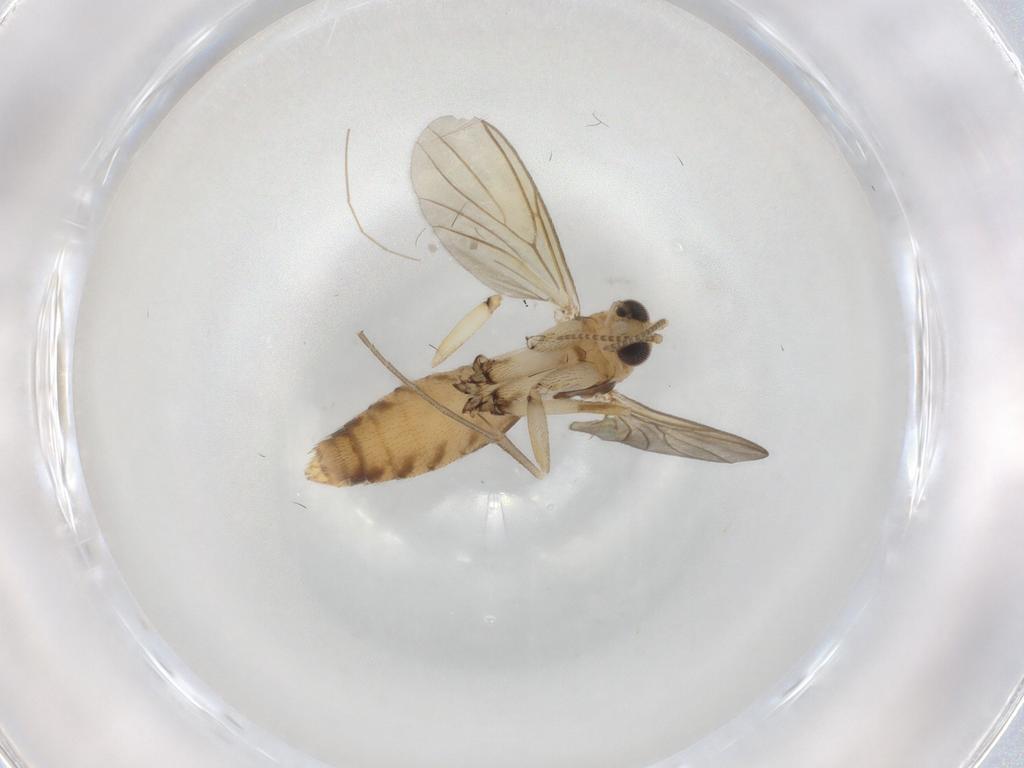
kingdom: Animalia
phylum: Arthropoda
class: Insecta
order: Diptera
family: Mycetophilidae
